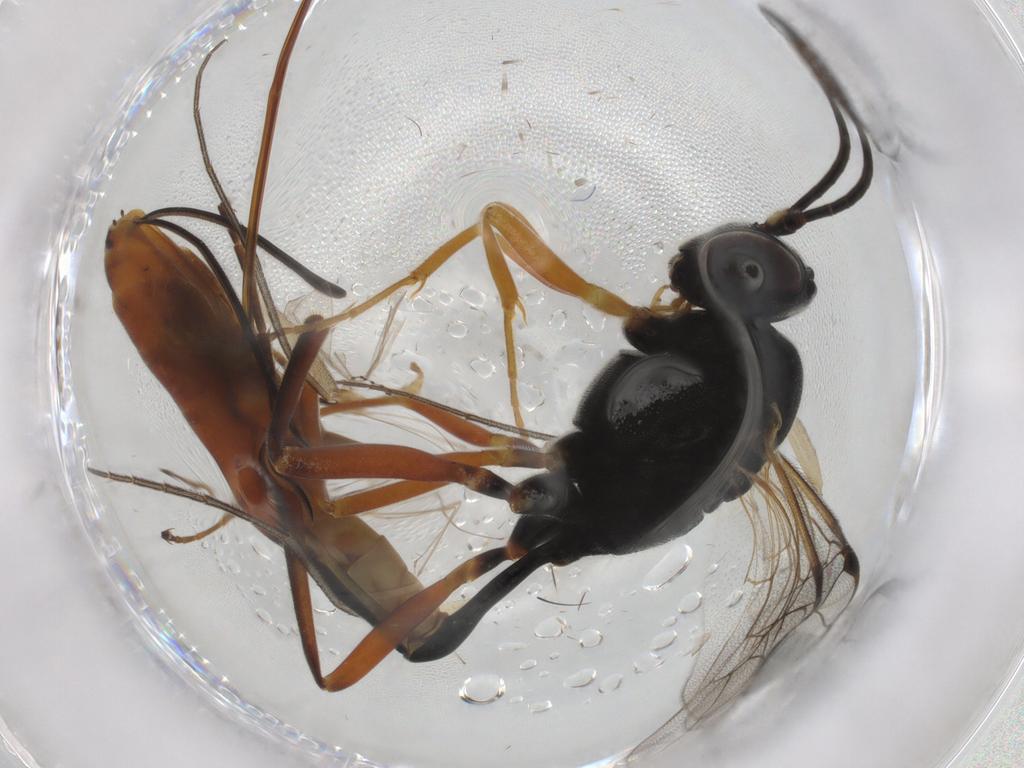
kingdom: Animalia
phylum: Arthropoda
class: Insecta
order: Hymenoptera
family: Ichneumonidae
